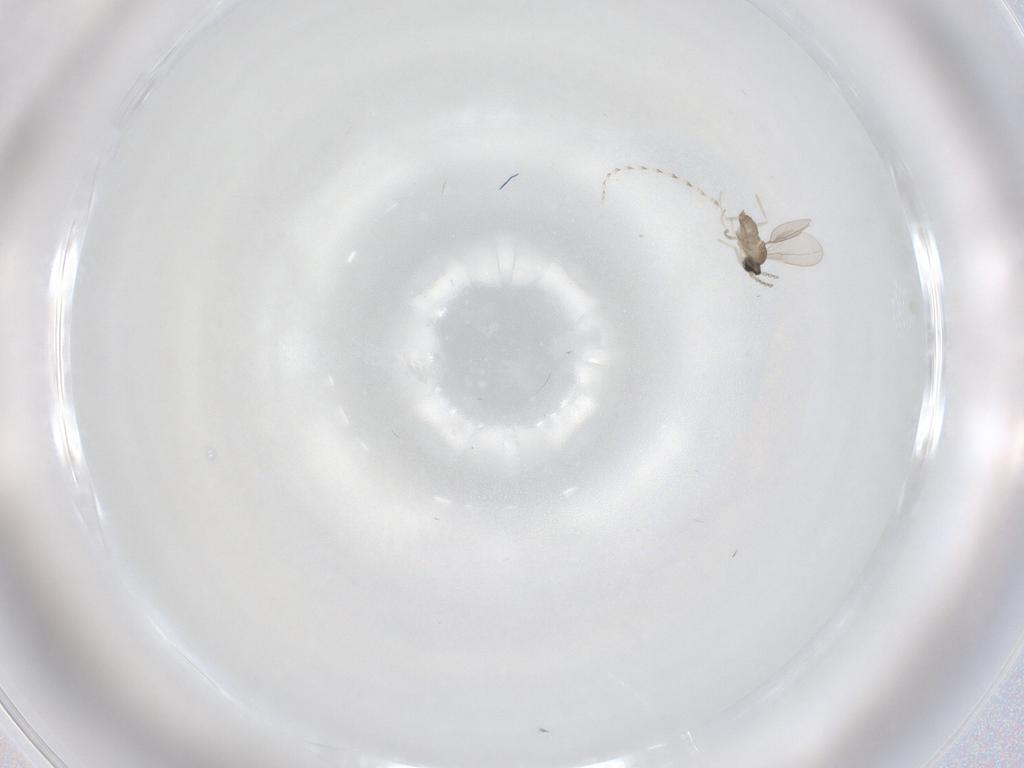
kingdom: Animalia
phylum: Arthropoda
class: Insecta
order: Diptera
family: Cecidomyiidae
